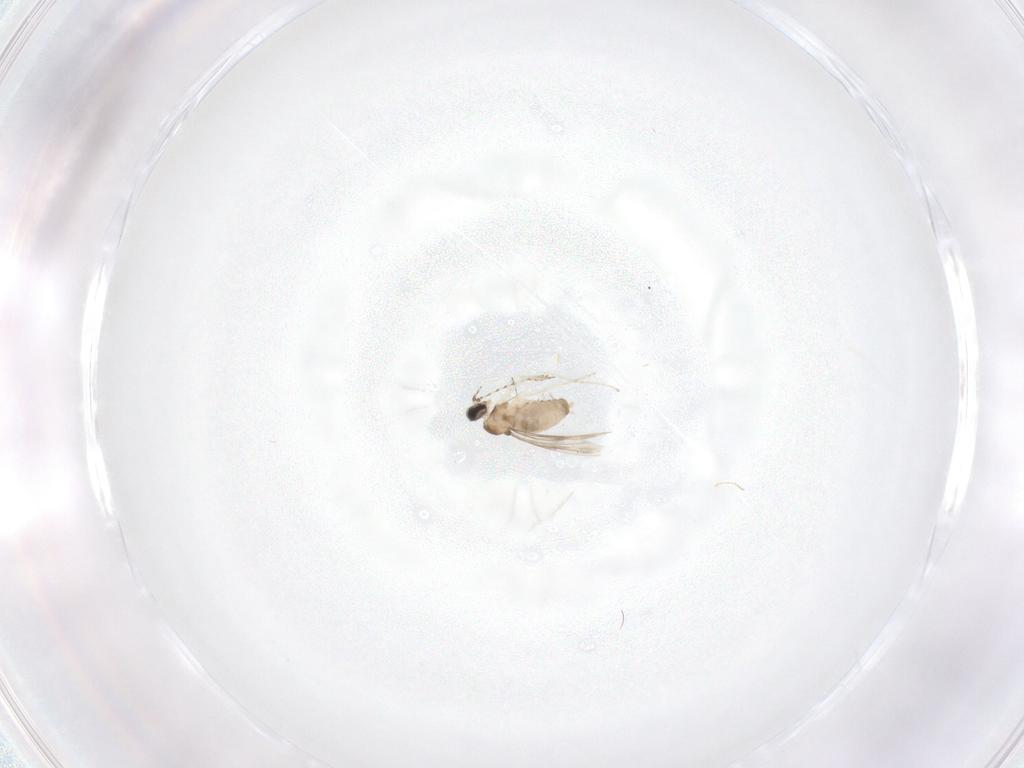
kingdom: Animalia
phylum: Arthropoda
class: Insecta
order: Diptera
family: Cecidomyiidae
